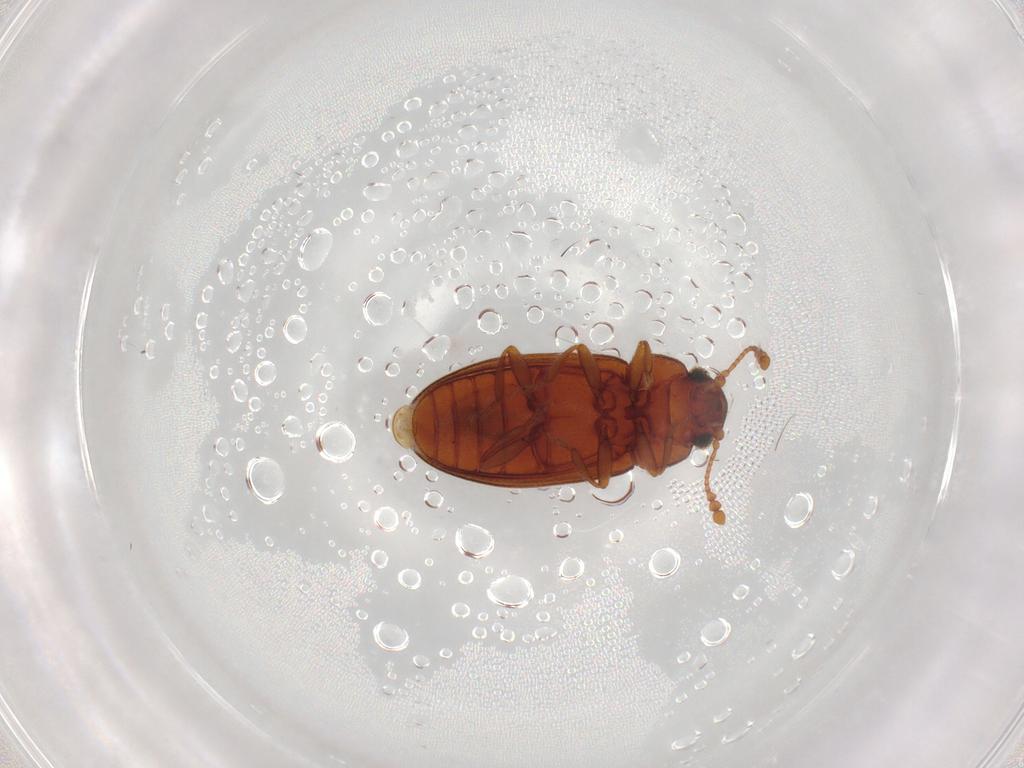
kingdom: Animalia
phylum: Arthropoda
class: Insecta
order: Coleoptera
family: Erotylidae
